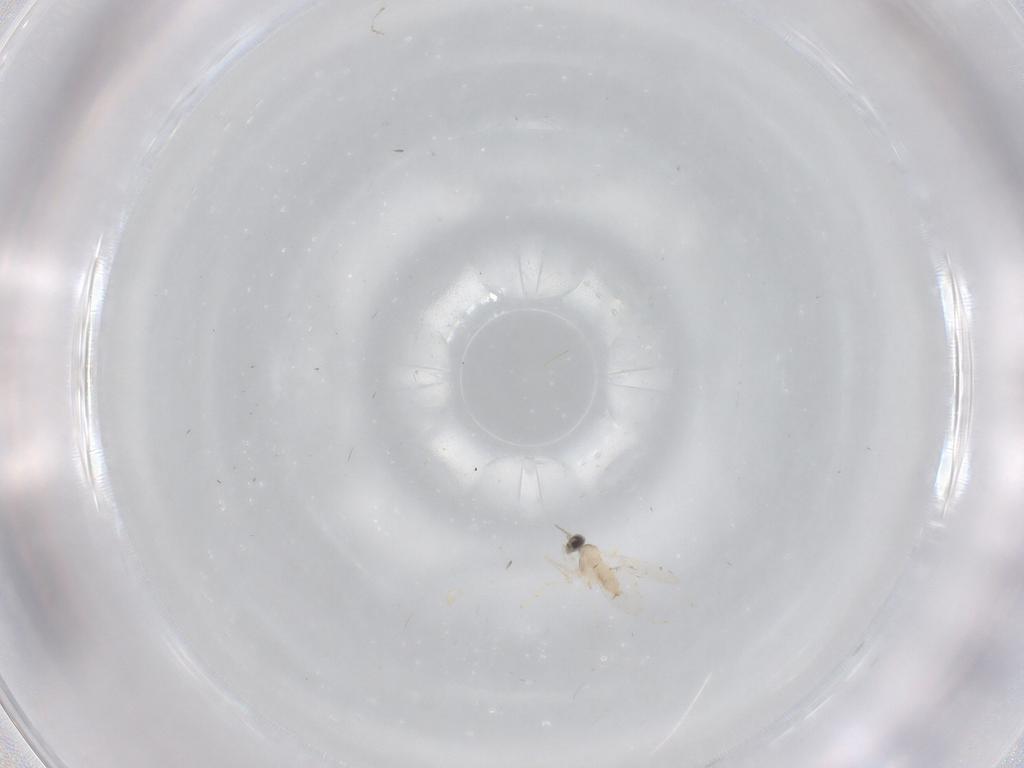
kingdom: Animalia
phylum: Arthropoda
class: Insecta
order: Diptera
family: Cecidomyiidae
